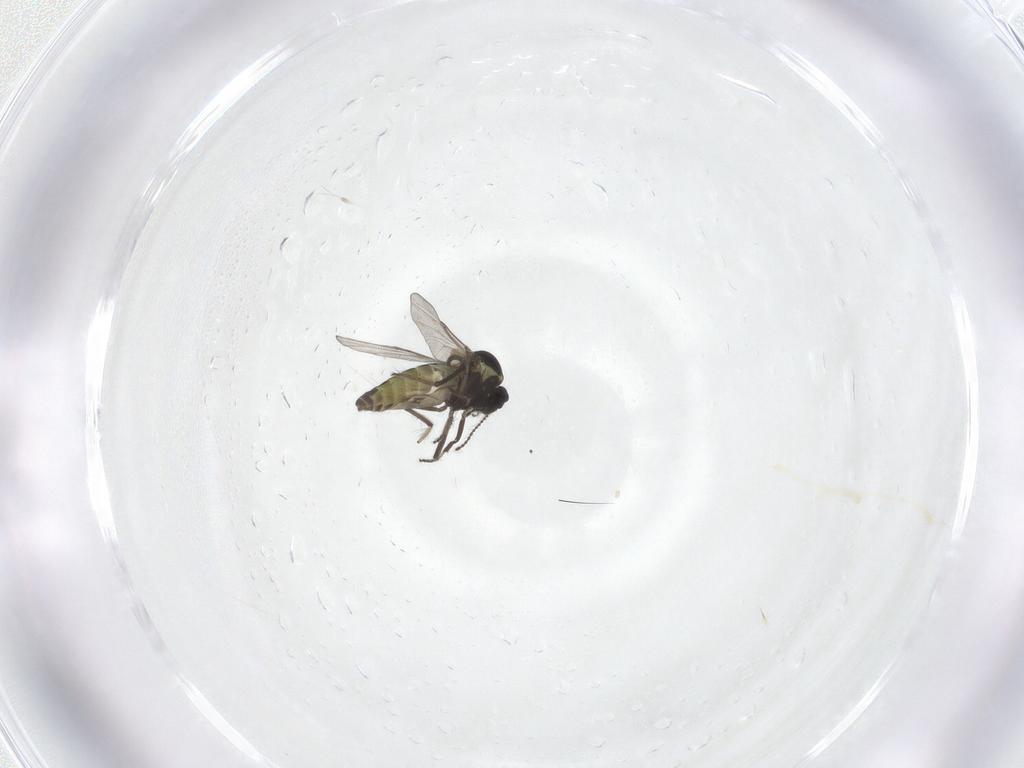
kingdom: Animalia
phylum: Arthropoda
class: Insecta
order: Diptera
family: Ceratopogonidae
